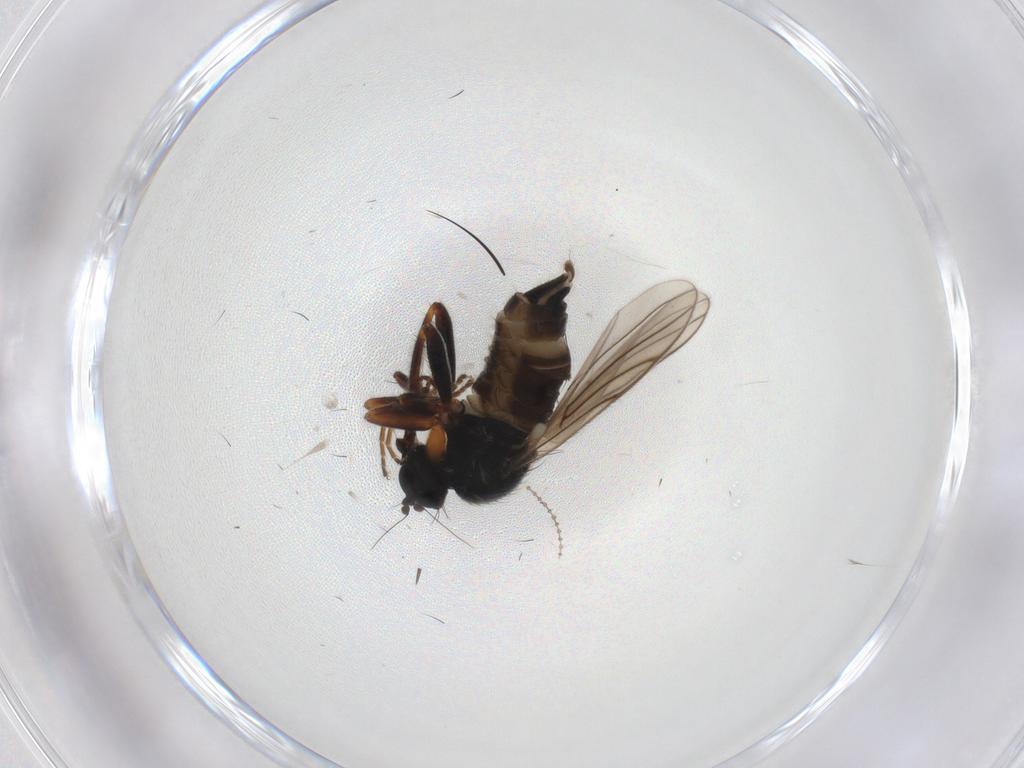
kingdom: Animalia
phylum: Arthropoda
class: Insecta
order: Diptera
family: Cecidomyiidae
